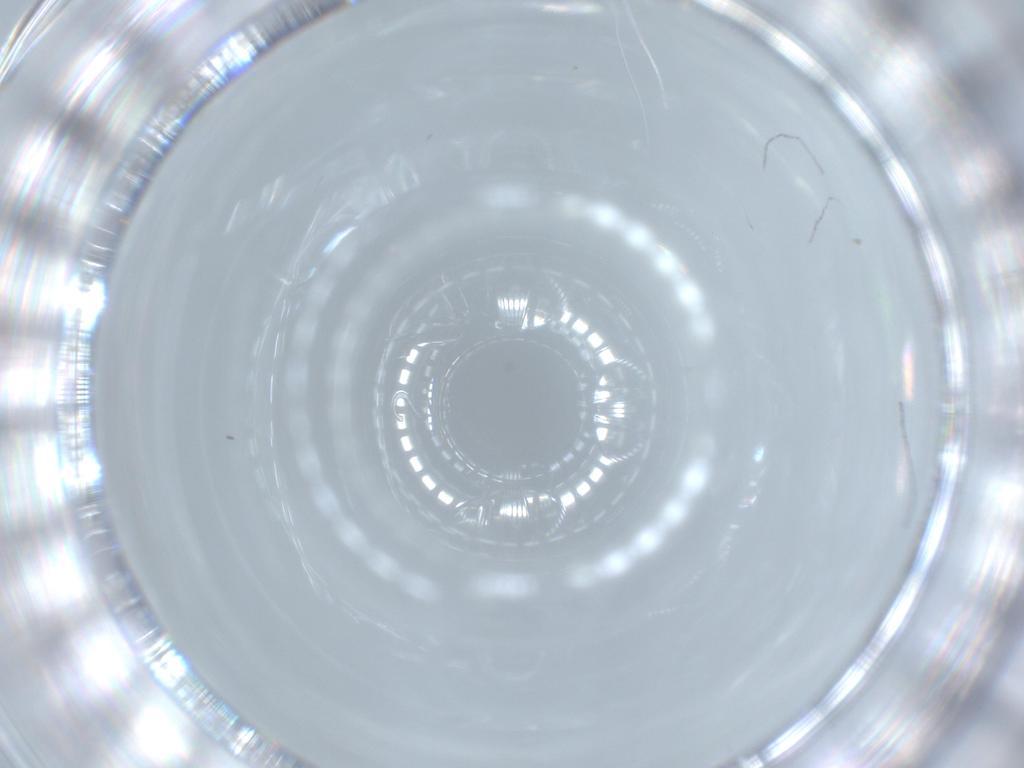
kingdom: Animalia
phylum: Arthropoda
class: Insecta
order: Diptera
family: Cecidomyiidae
